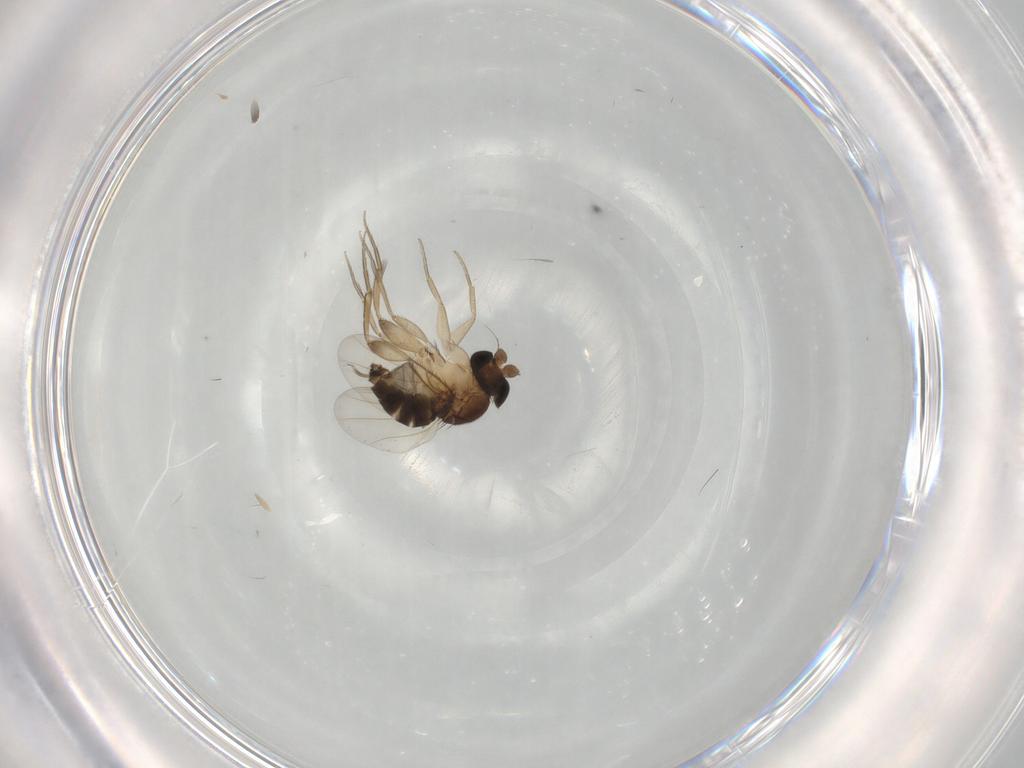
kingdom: Animalia
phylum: Arthropoda
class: Insecta
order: Diptera
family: Phoridae
